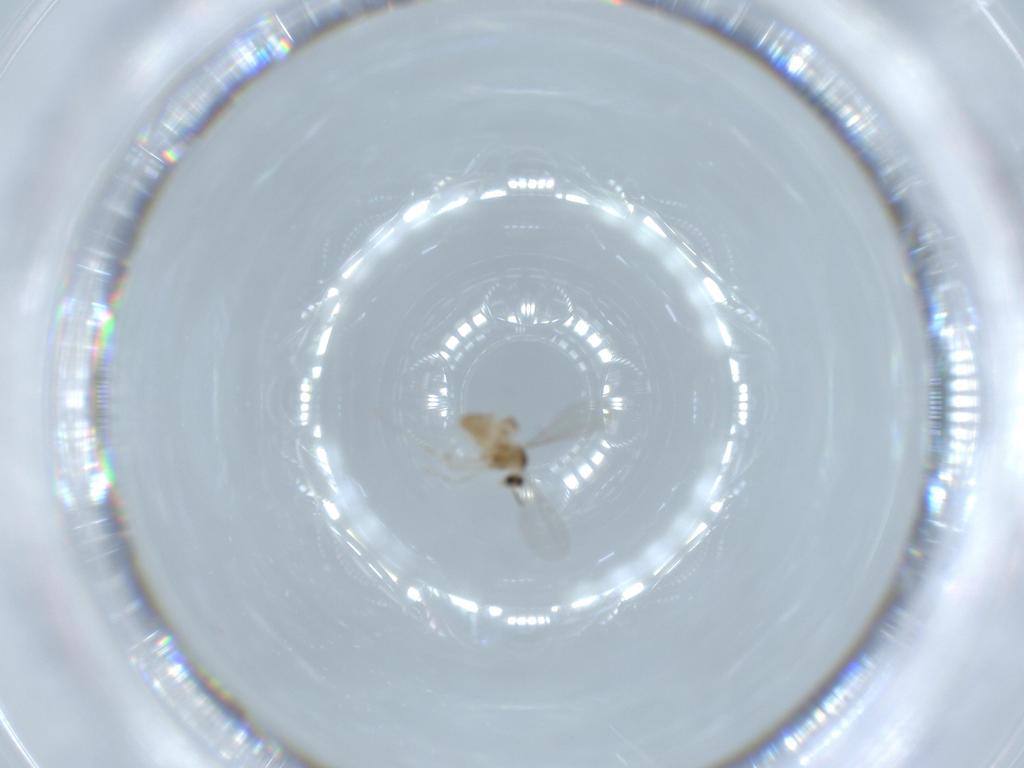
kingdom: Animalia
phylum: Arthropoda
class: Insecta
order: Diptera
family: Cecidomyiidae
